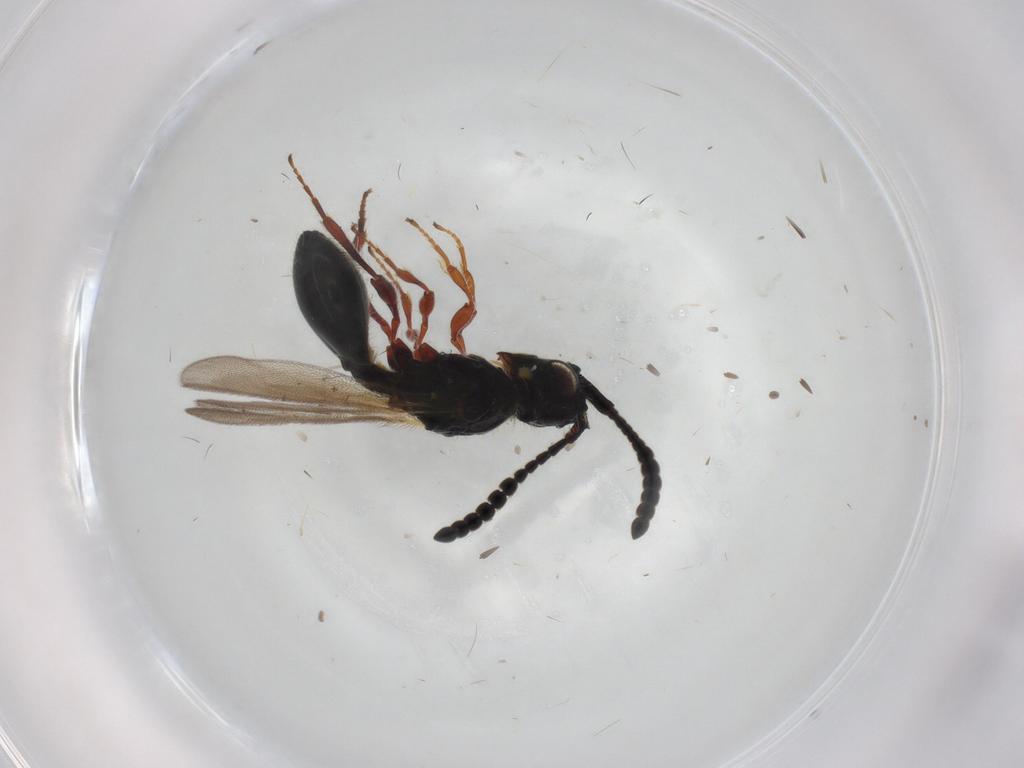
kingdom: Animalia
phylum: Arthropoda
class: Insecta
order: Hymenoptera
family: Diapriidae
